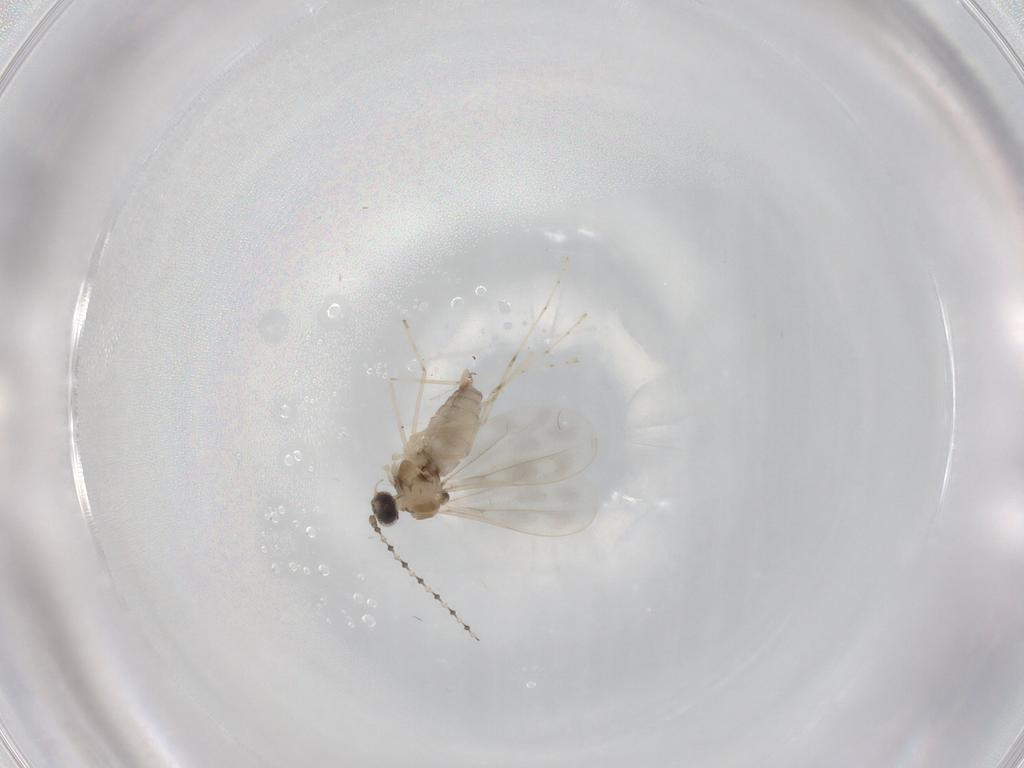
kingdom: Animalia
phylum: Arthropoda
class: Insecta
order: Diptera
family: Cecidomyiidae
